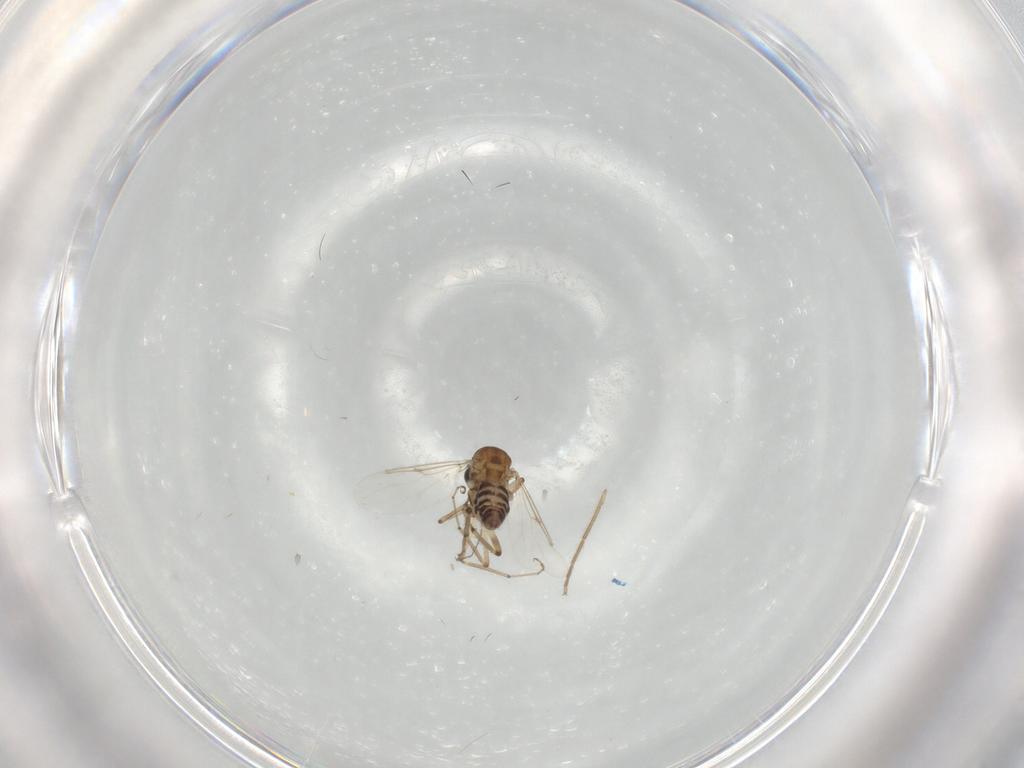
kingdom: Animalia
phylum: Arthropoda
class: Insecta
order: Diptera
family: Ceratopogonidae
